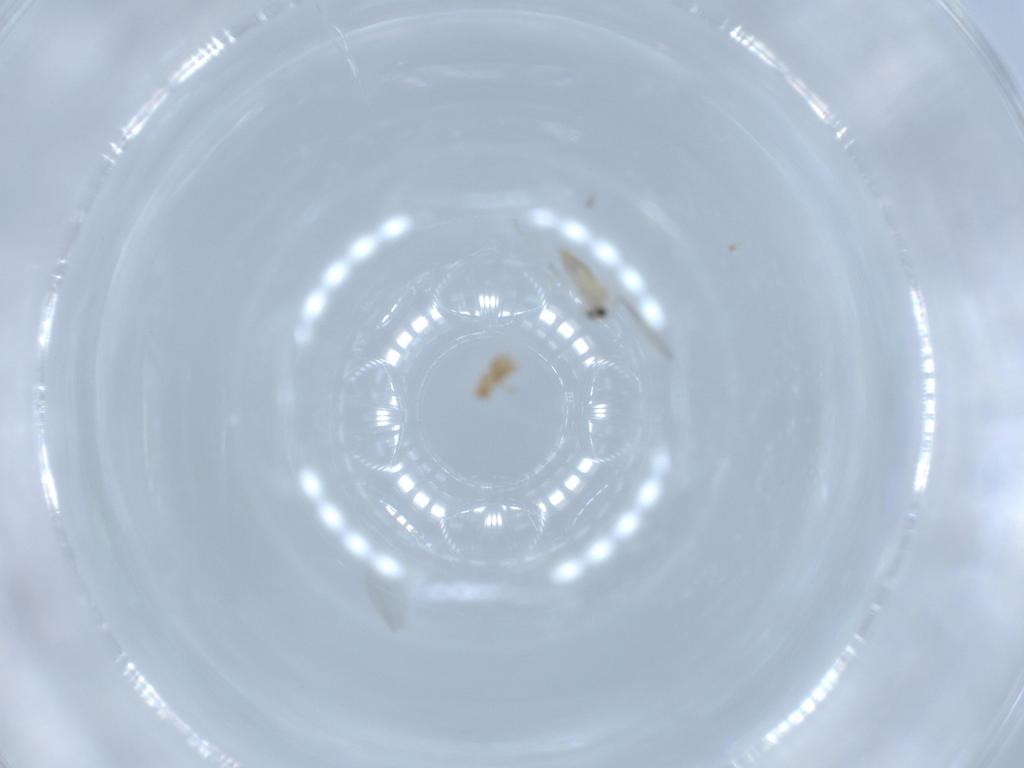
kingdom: Animalia
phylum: Arthropoda
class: Insecta
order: Diptera
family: Cecidomyiidae
